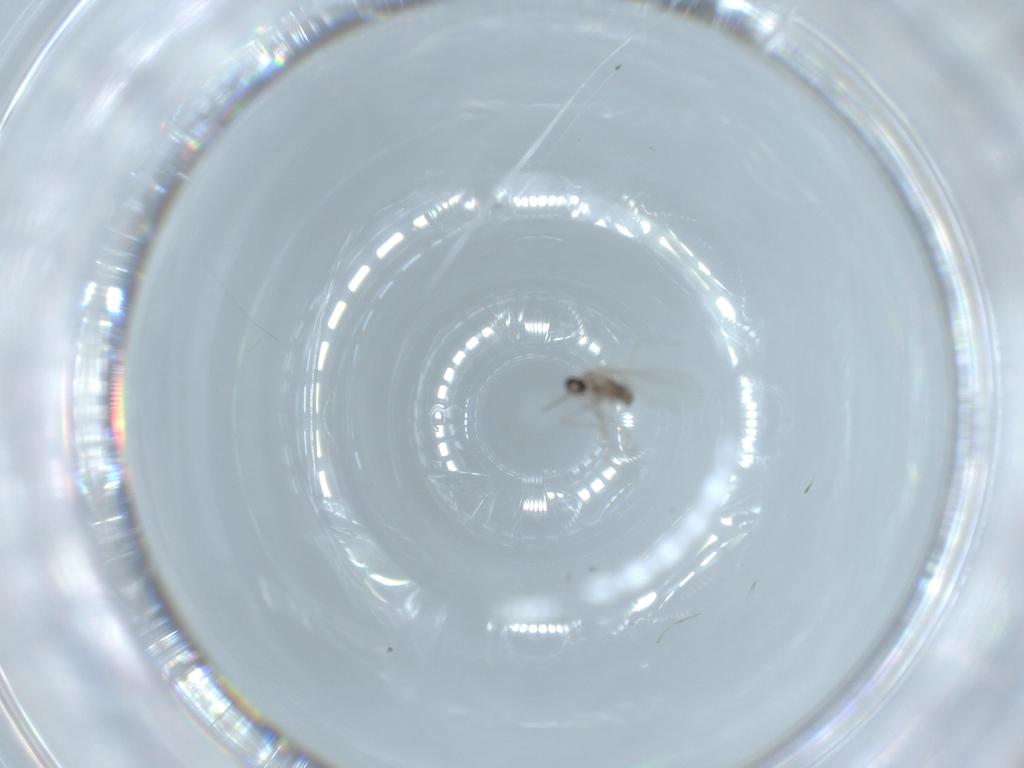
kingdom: Animalia
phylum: Arthropoda
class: Insecta
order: Diptera
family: Cecidomyiidae
